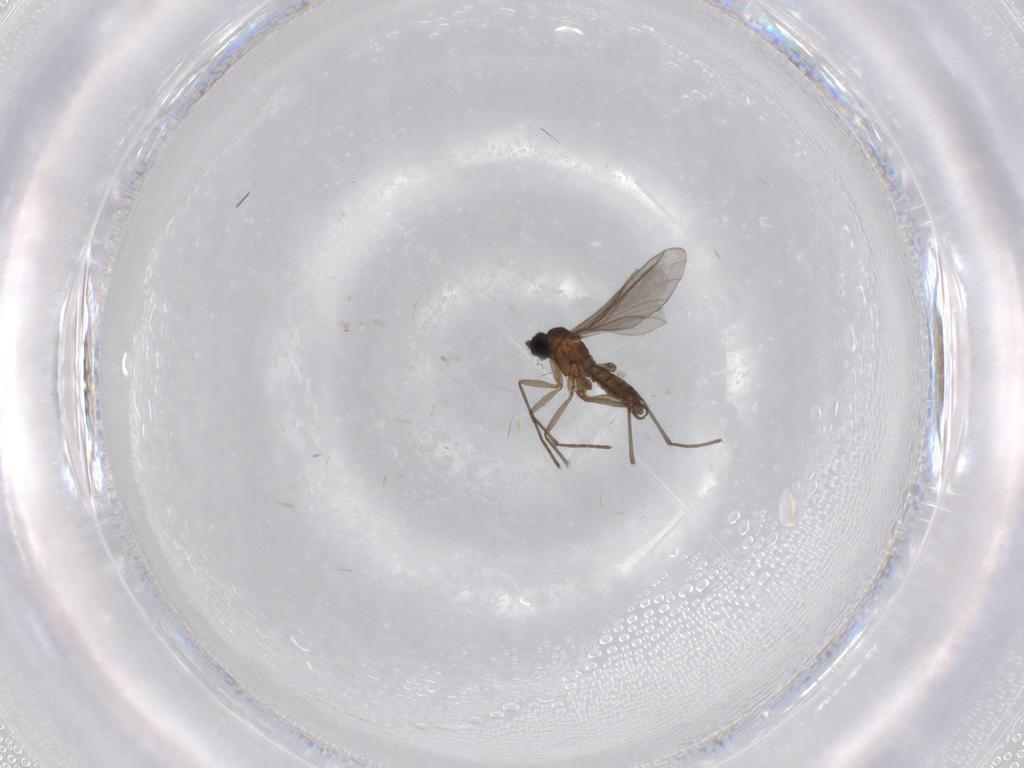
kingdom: Animalia
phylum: Arthropoda
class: Insecta
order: Diptera
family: Sciaridae
